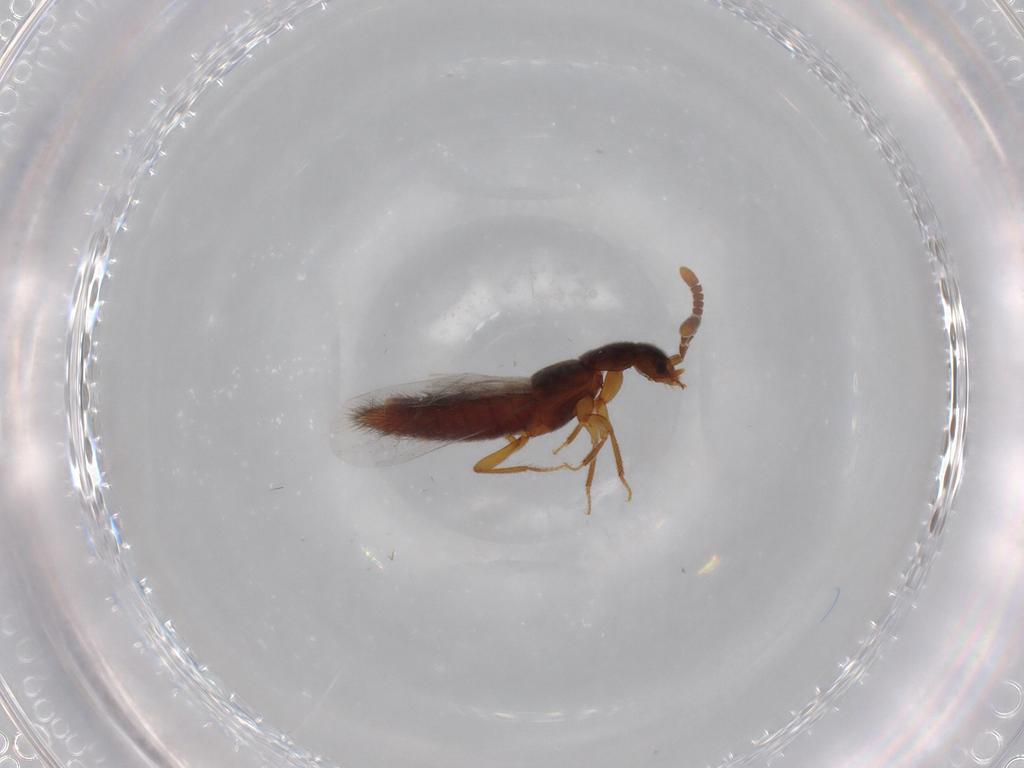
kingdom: Animalia
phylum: Arthropoda
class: Insecta
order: Coleoptera
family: Staphylinidae
